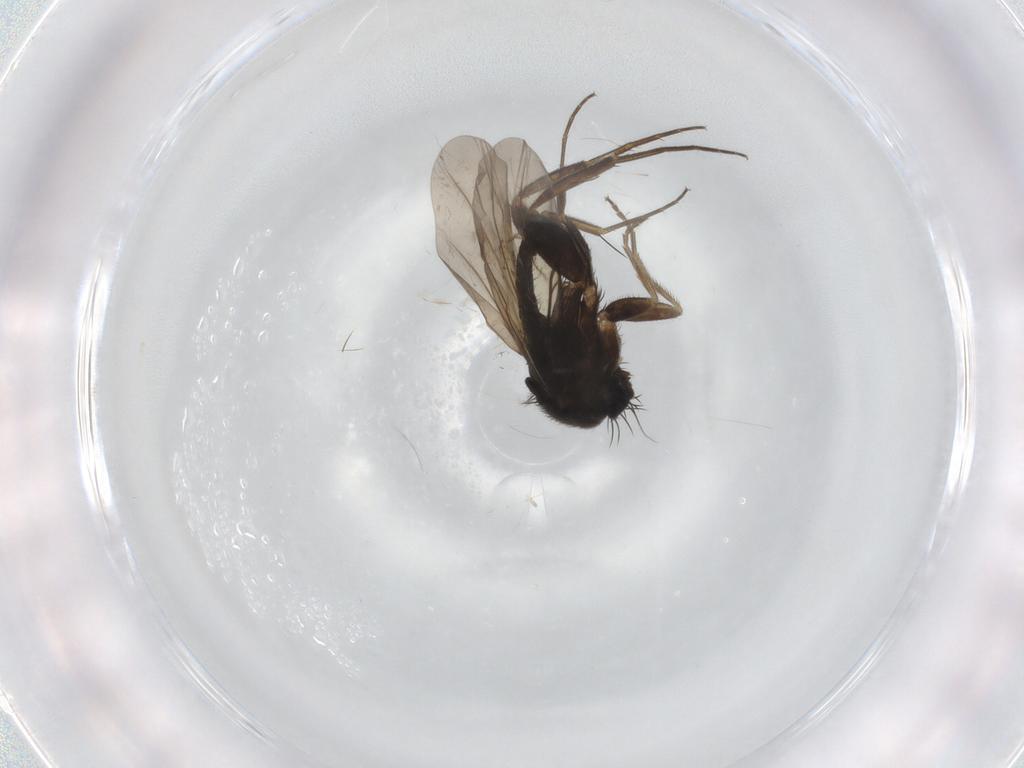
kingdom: Animalia
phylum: Arthropoda
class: Insecta
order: Diptera
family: Phoridae
